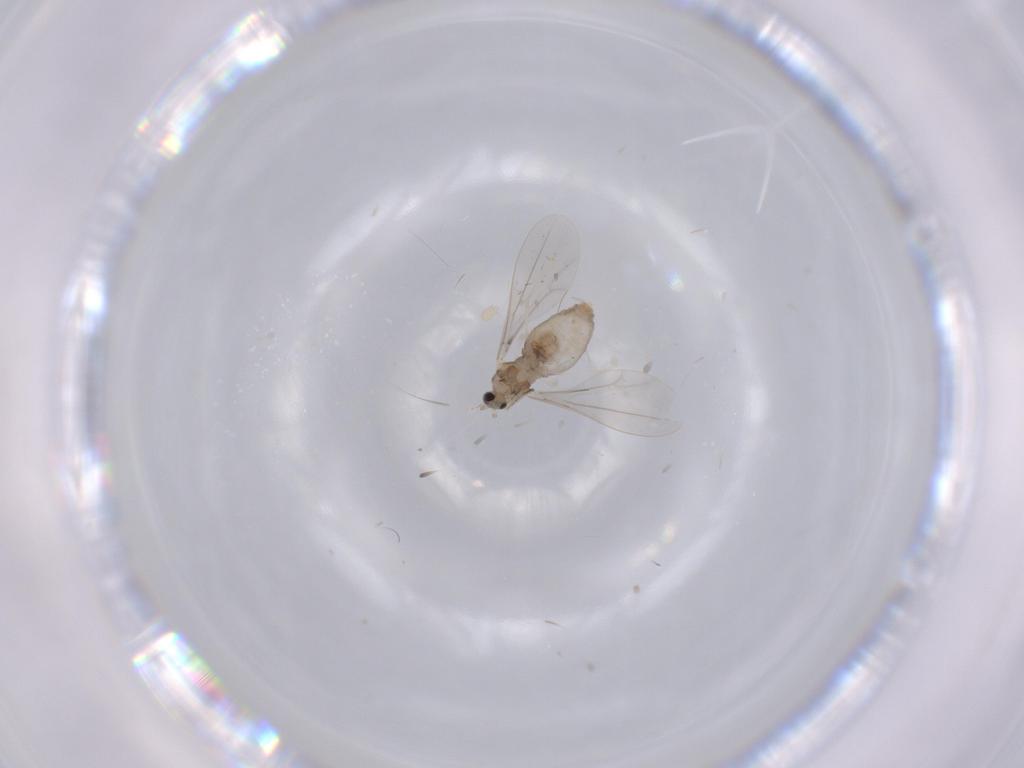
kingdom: Animalia
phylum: Arthropoda
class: Insecta
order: Diptera
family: Cecidomyiidae
